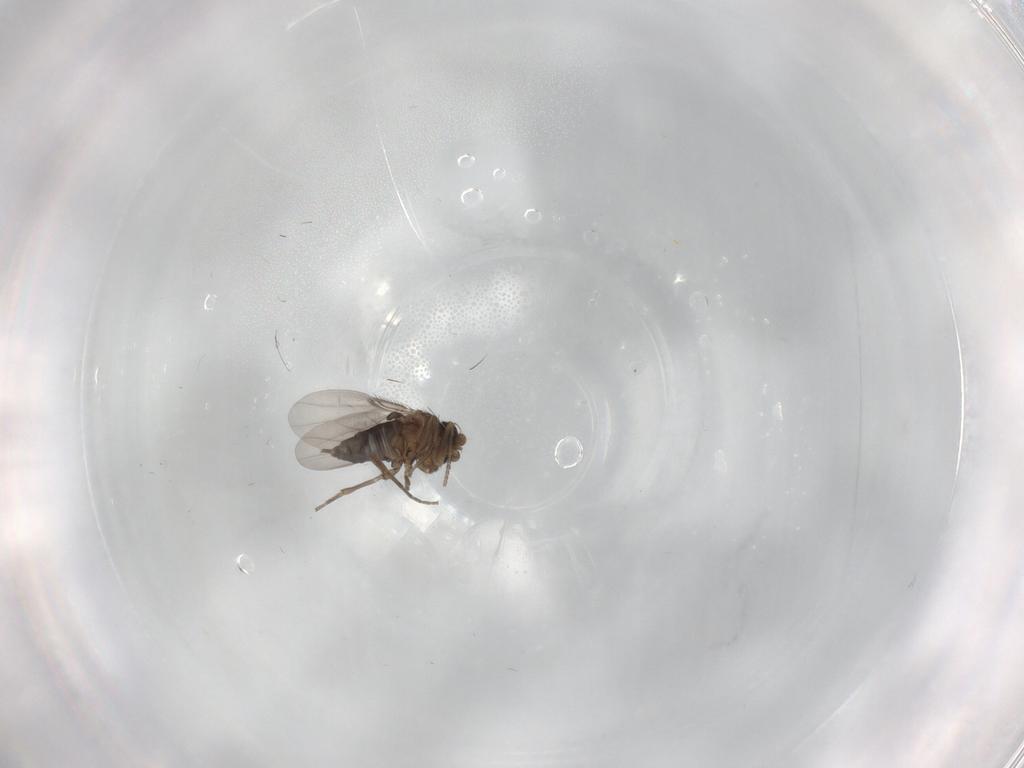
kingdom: Animalia
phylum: Arthropoda
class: Insecta
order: Diptera
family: Phoridae
